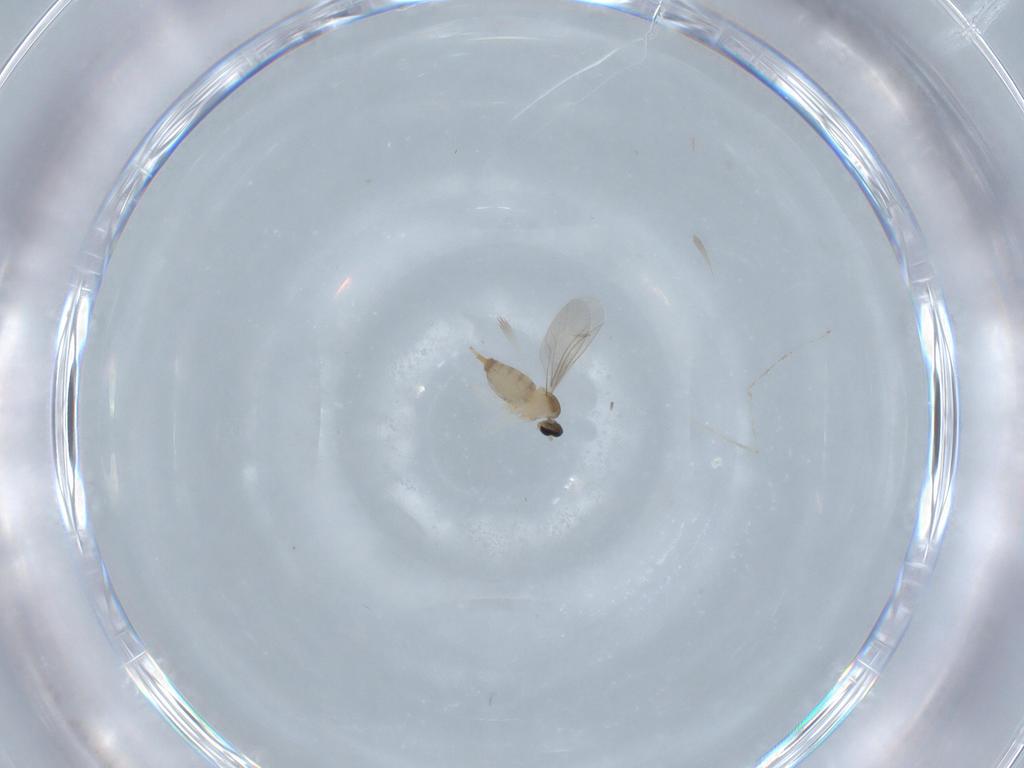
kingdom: Animalia
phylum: Arthropoda
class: Insecta
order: Diptera
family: Cecidomyiidae
